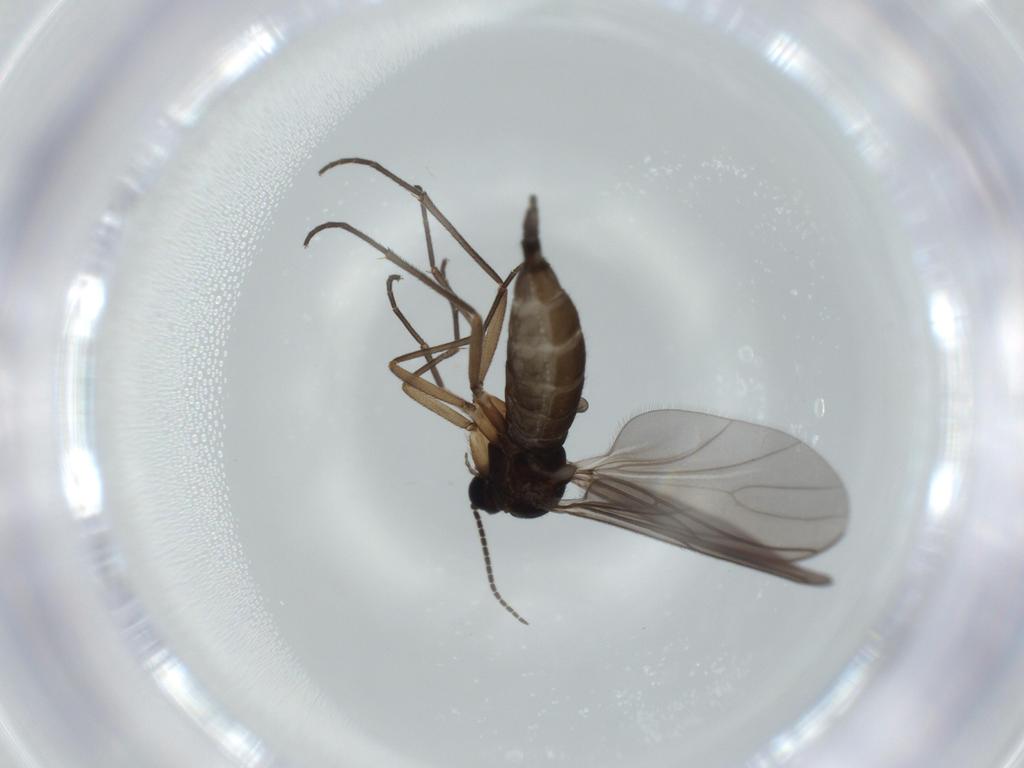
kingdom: Animalia
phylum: Arthropoda
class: Insecta
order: Diptera
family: Sciaridae
